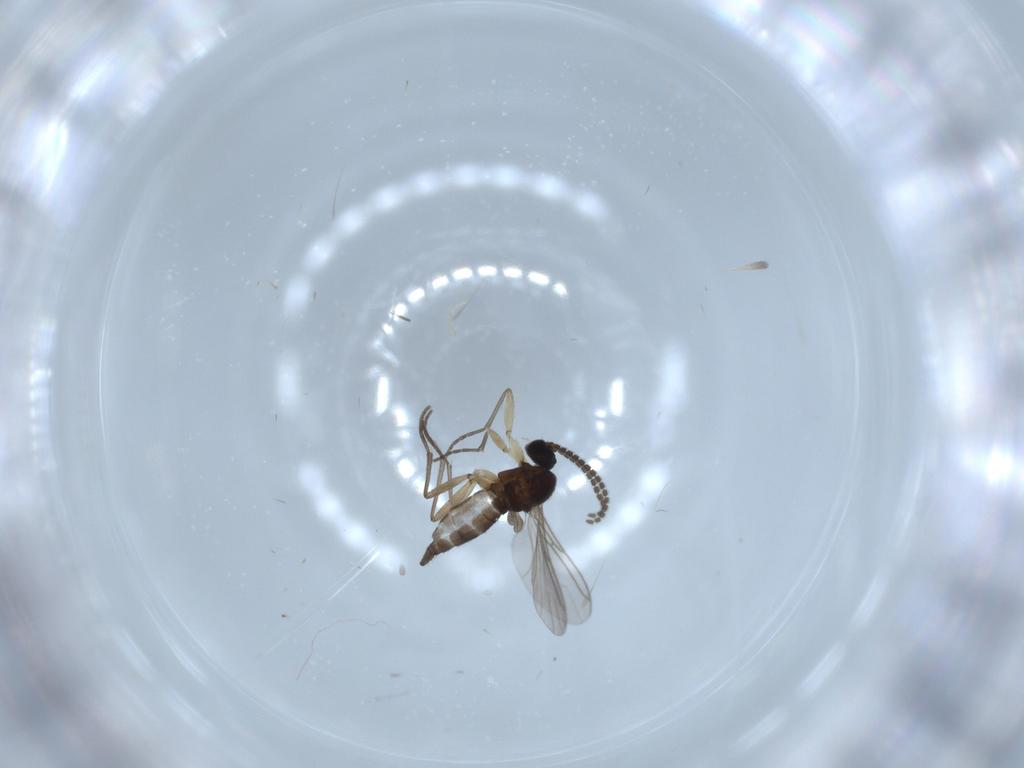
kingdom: Animalia
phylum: Arthropoda
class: Insecta
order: Diptera
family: Sciaridae
